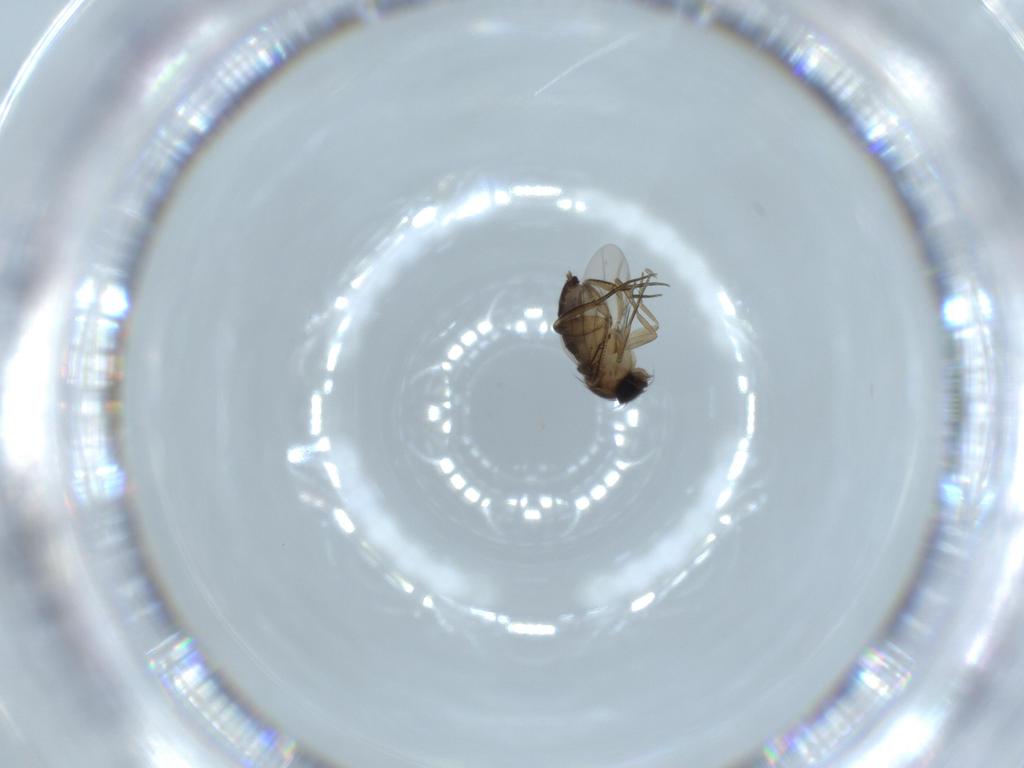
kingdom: Animalia
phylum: Arthropoda
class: Insecta
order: Diptera
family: Phoridae
